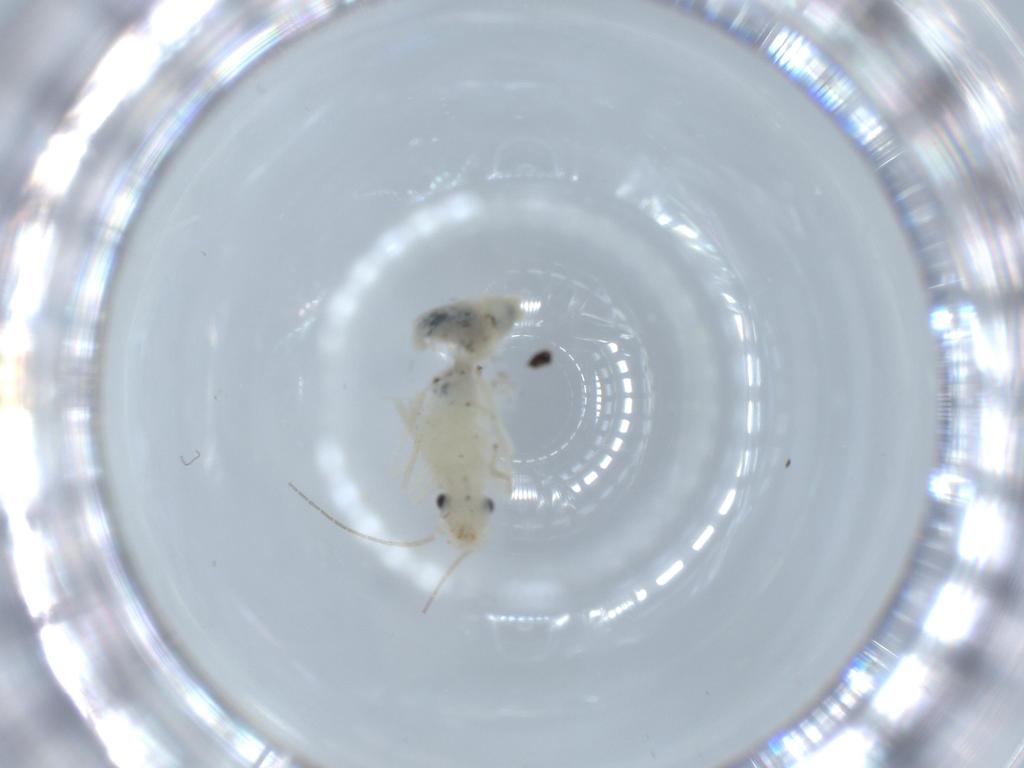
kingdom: Animalia
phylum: Arthropoda
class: Insecta
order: Psocodea
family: Caeciliusidae
